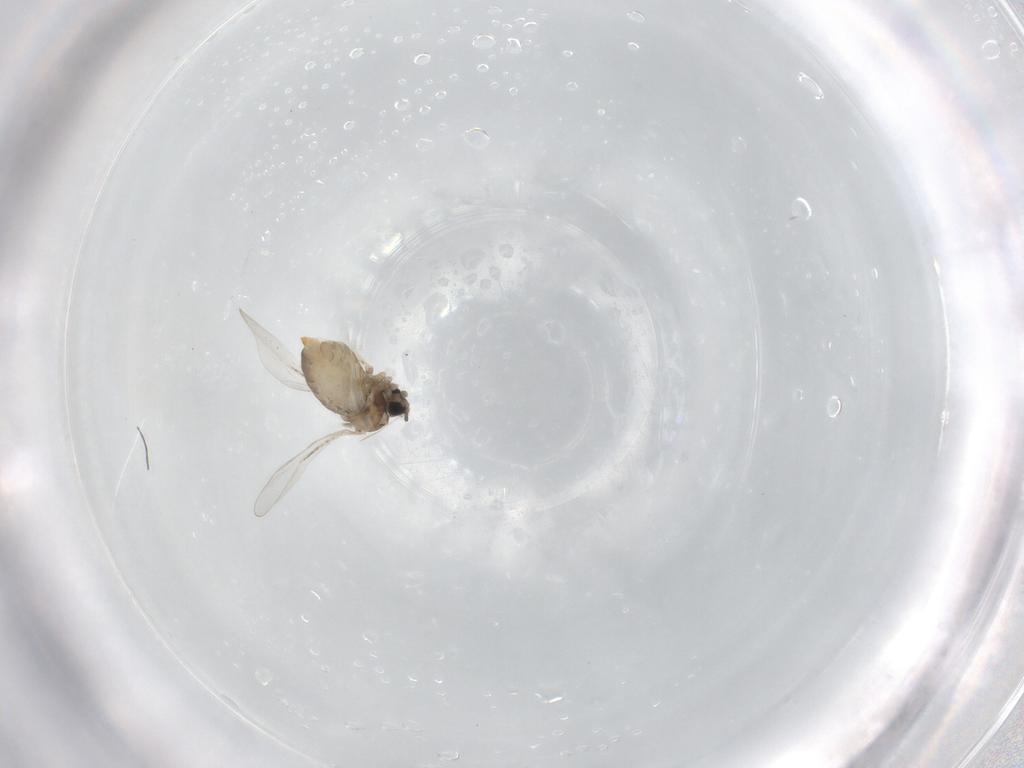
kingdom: Animalia
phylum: Arthropoda
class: Insecta
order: Diptera
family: Cecidomyiidae
